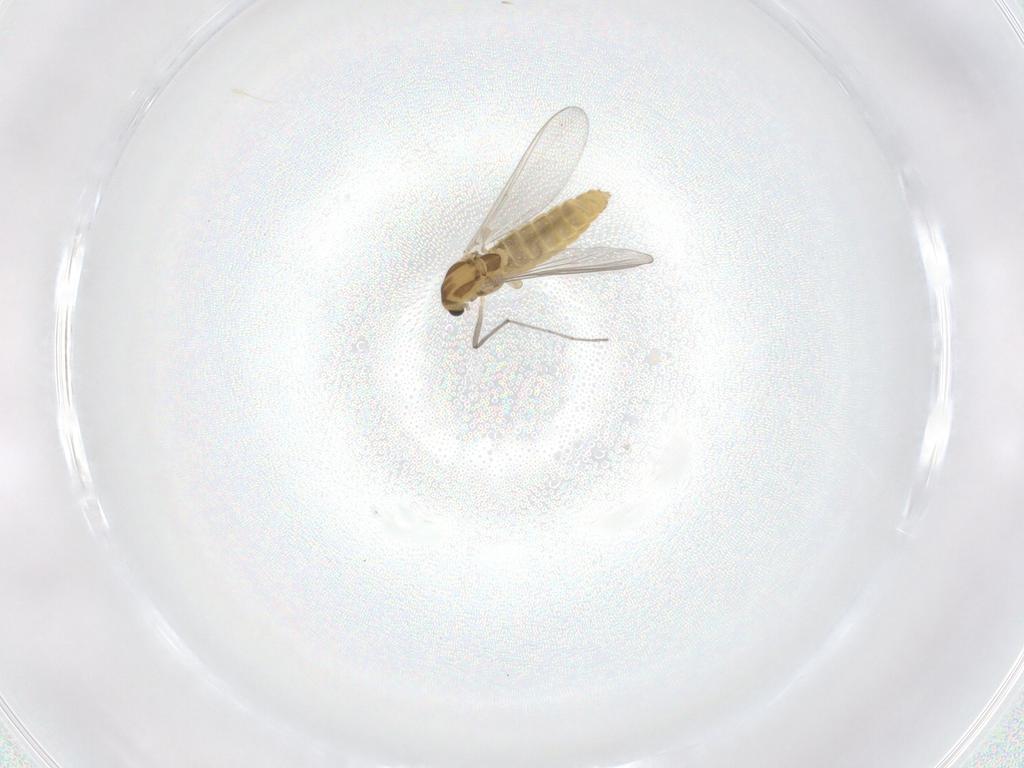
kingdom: Animalia
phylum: Arthropoda
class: Insecta
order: Diptera
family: Chironomidae
